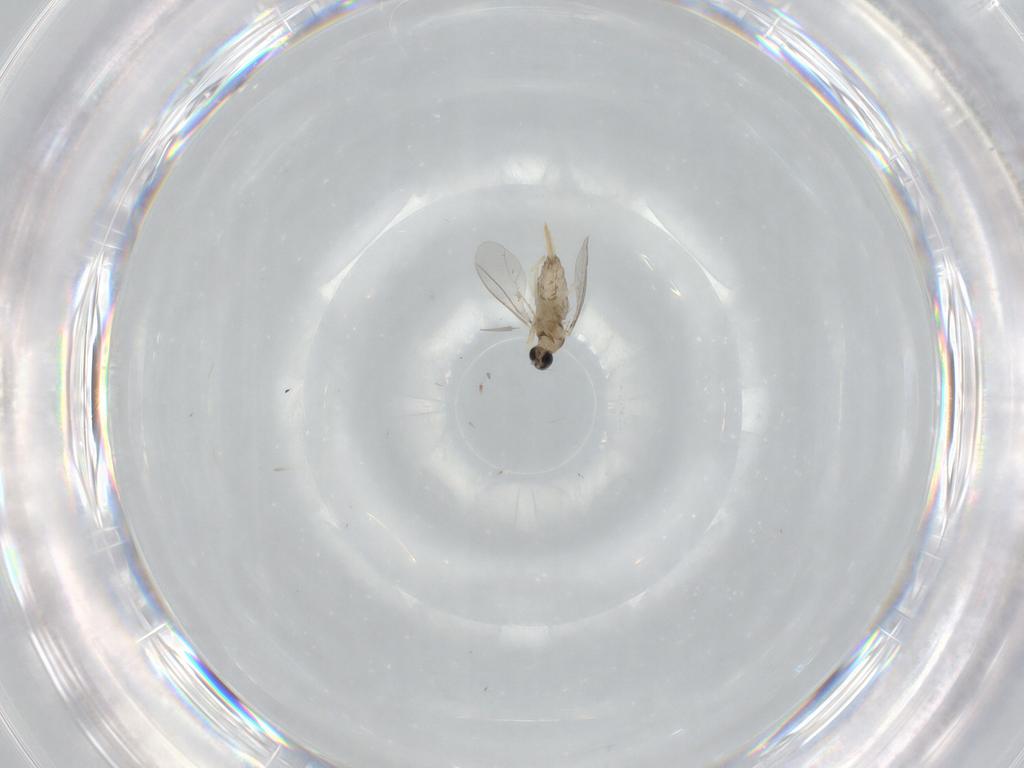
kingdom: Animalia
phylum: Arthropoda
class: Insecta
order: Diptera
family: Cecidomyiidae
